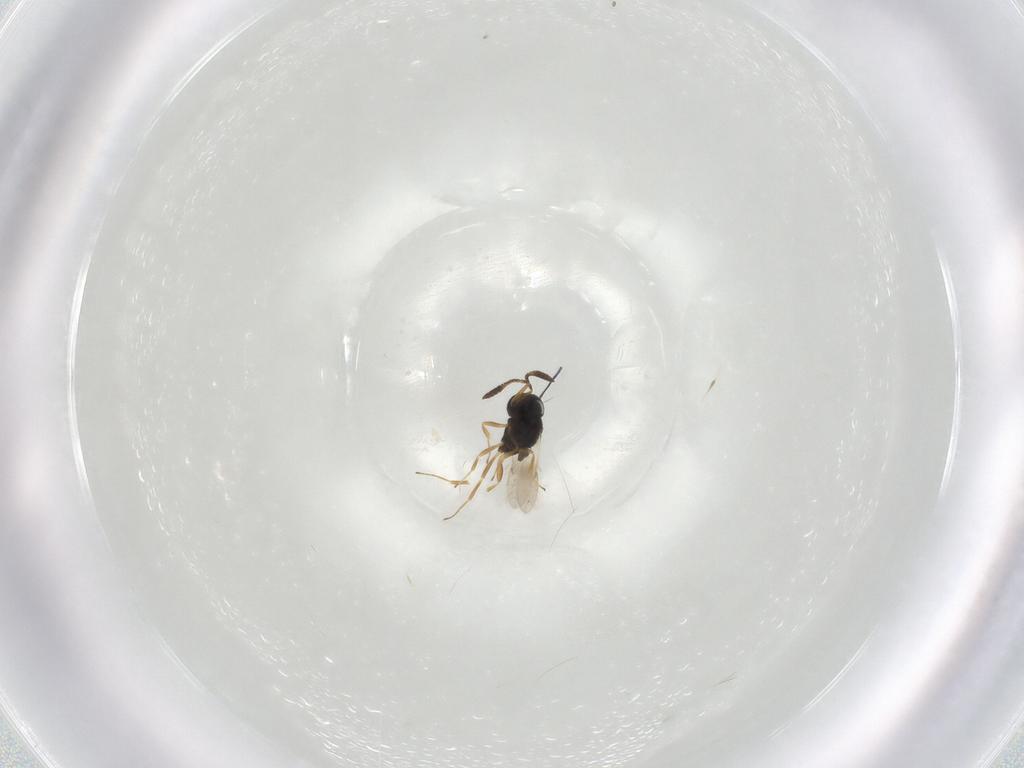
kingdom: Animalia
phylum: Arthropoda
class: Insecta
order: Hymenoptera
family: Scelionidae
